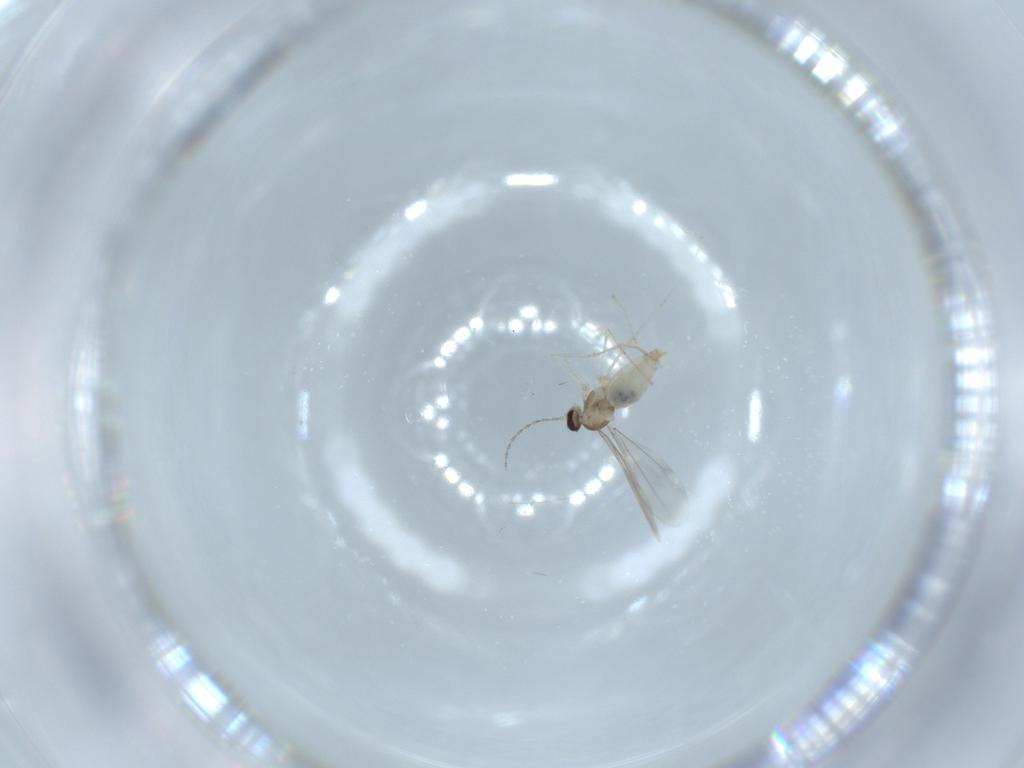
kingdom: Animalia
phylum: Arthropoda
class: Insecta
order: Diptera
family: Cecidomyiidae
